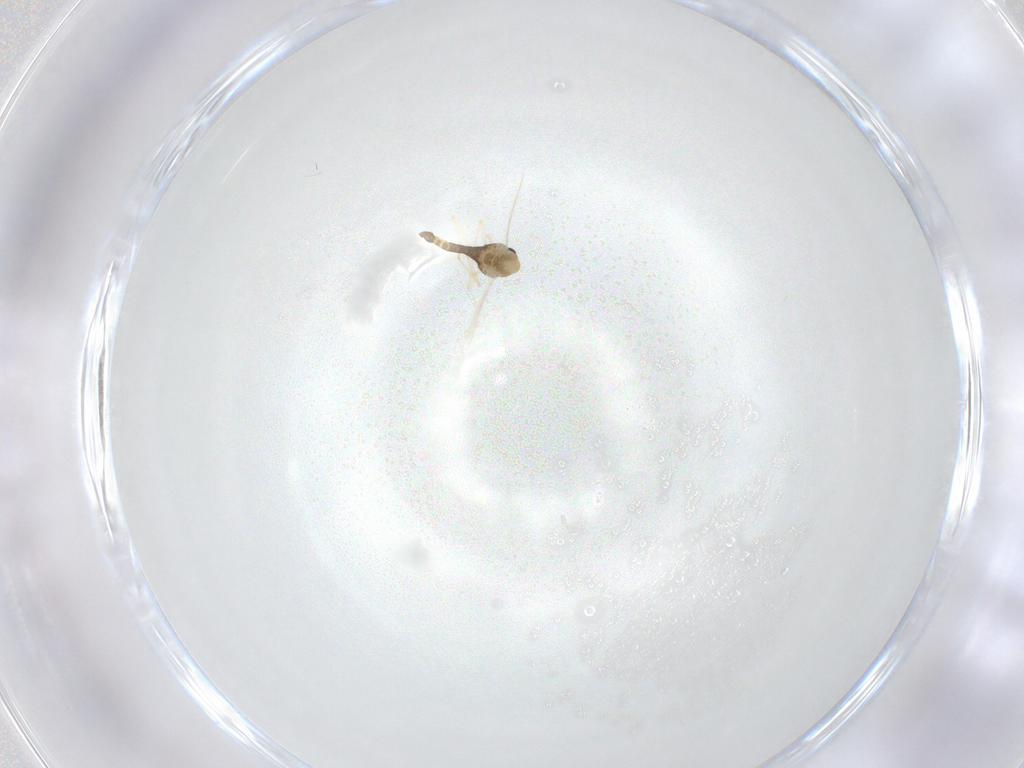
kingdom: Animalia
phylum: Arthropoda
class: Insecta
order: Diptera
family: Chironomidae
